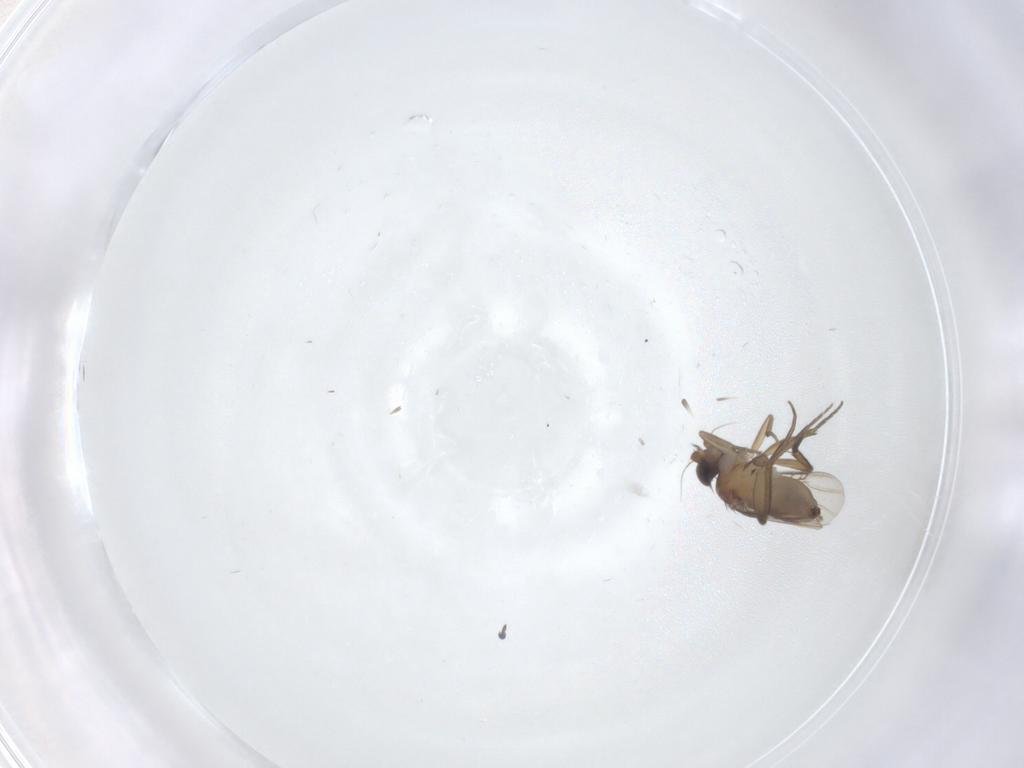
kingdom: Animalia
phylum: Arthropoda
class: Insecta
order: Diptera
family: Phoridae
